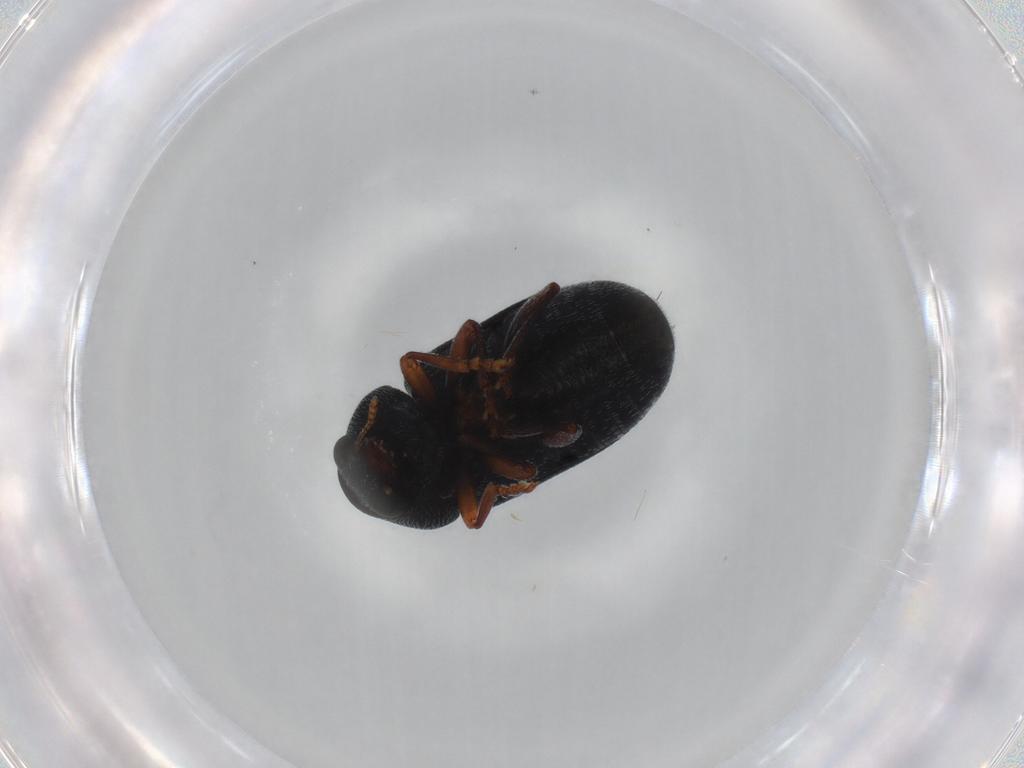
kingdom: Animalia
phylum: Arthropoda
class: Insecta
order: Coleoptera
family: Anthribidae
